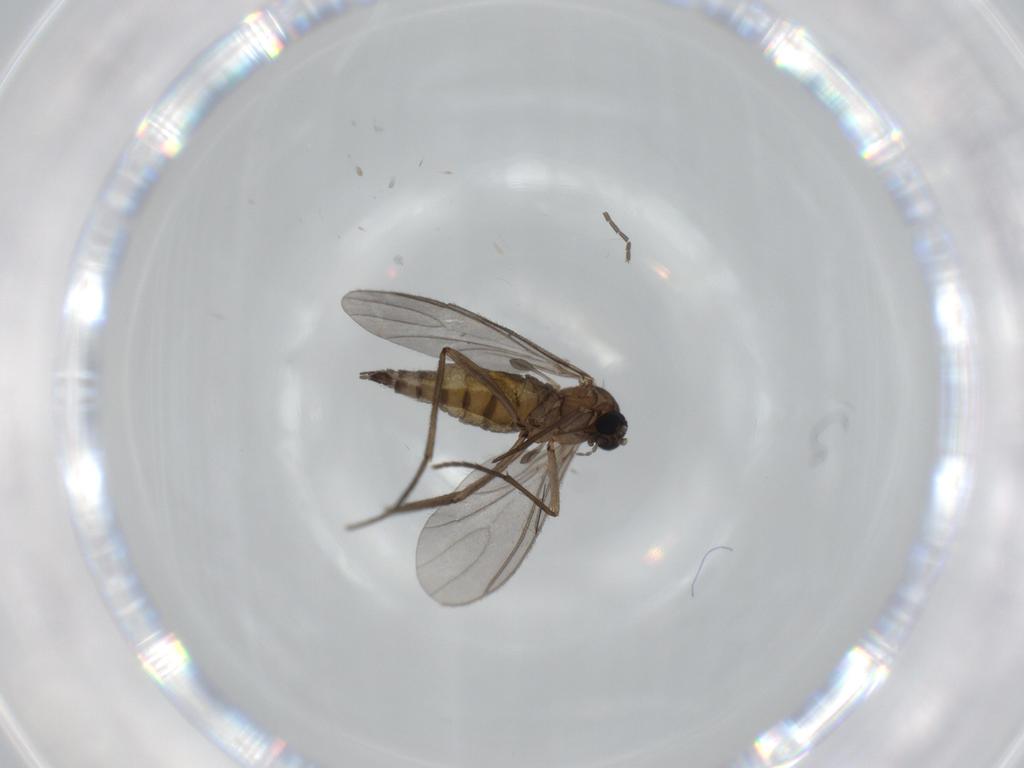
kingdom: Animalia
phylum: Arthropoda
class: Insecta
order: Diptera
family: Sciaridae
